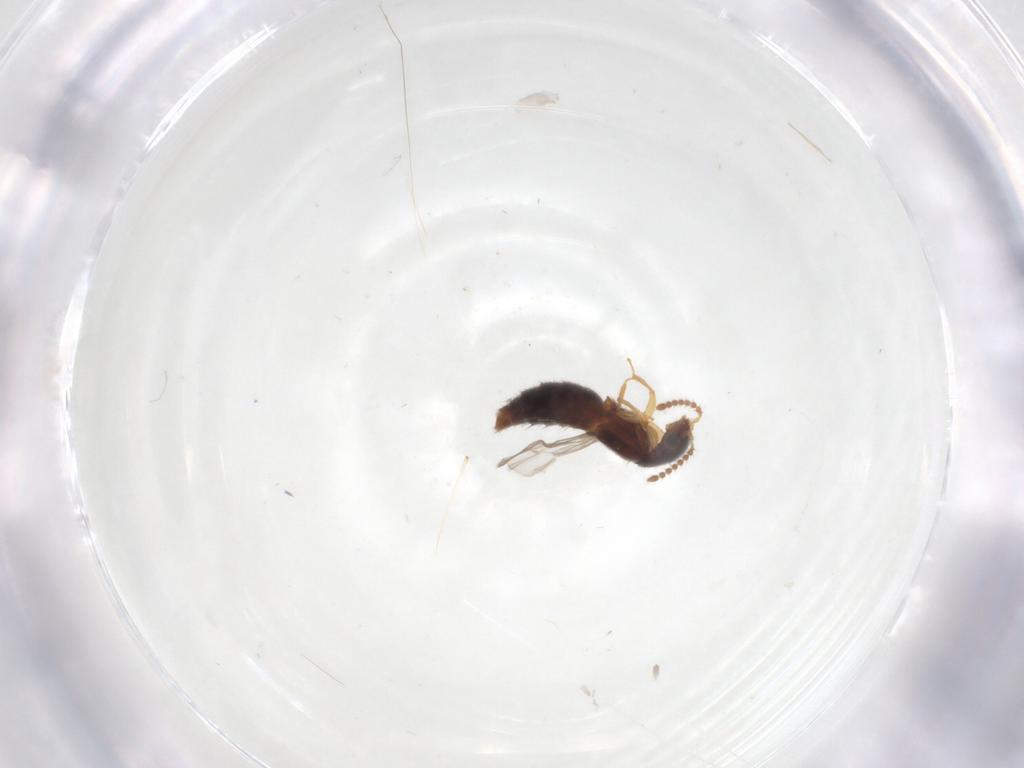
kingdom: Animalia
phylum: Arthropoda
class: Insecta
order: Coleoptera
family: Staphylinidae
